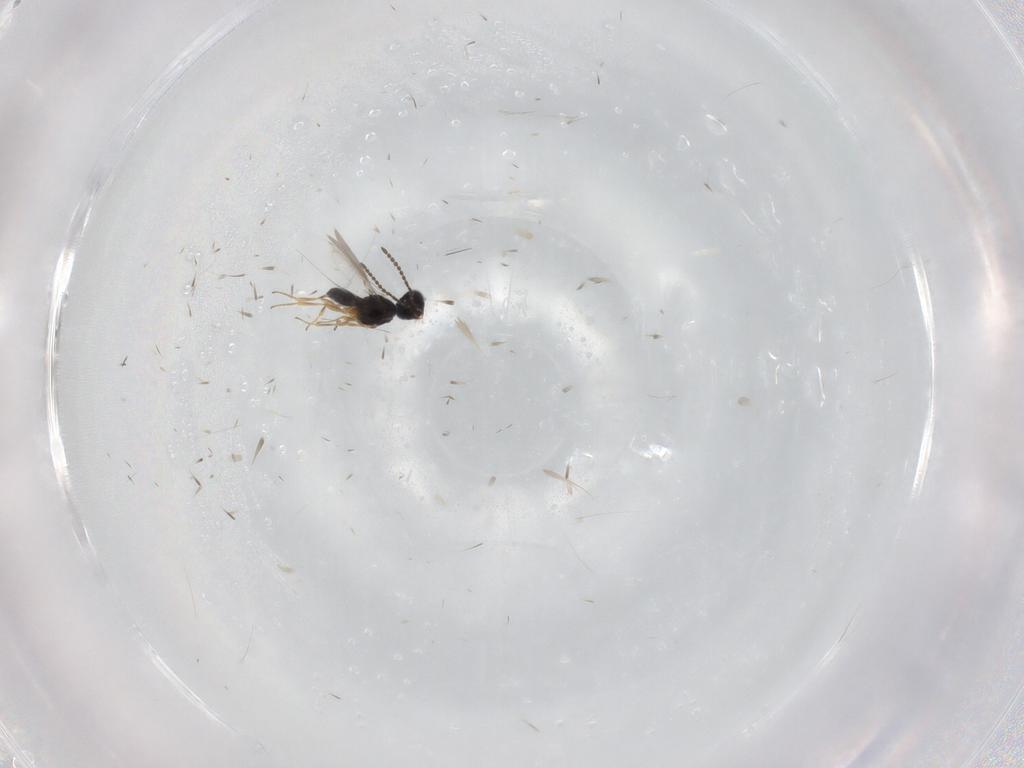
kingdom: Animalia
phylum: Arthropoda
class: Insecta
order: Hymenoptera
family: Scelionidae
